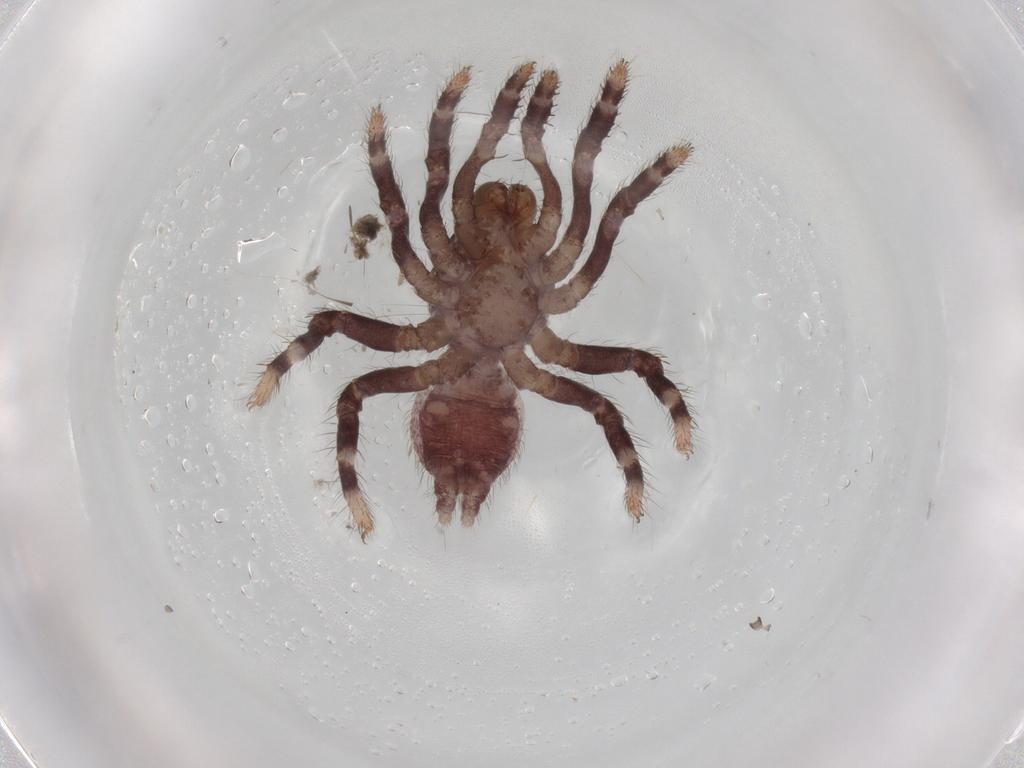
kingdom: Animalia
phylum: Arthropoda
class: Arachnida
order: Araneae
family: Halonoproctidae
